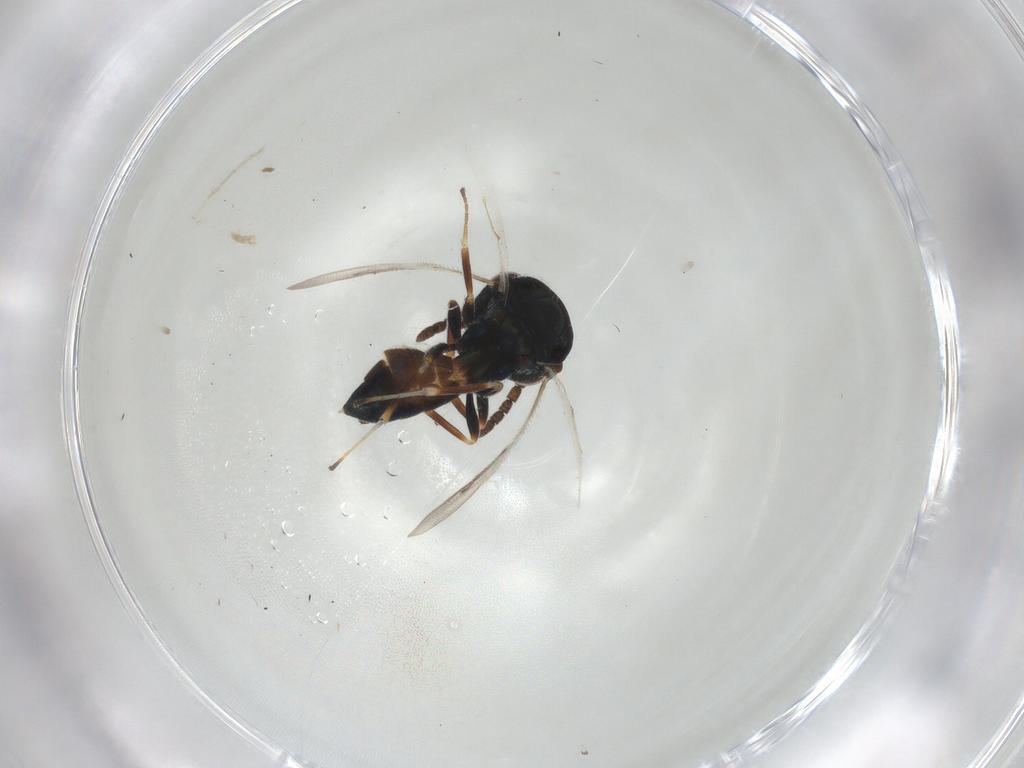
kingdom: Animalia
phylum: Arthropoda
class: Insecta
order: Hymenoptera
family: Pteromalidae
